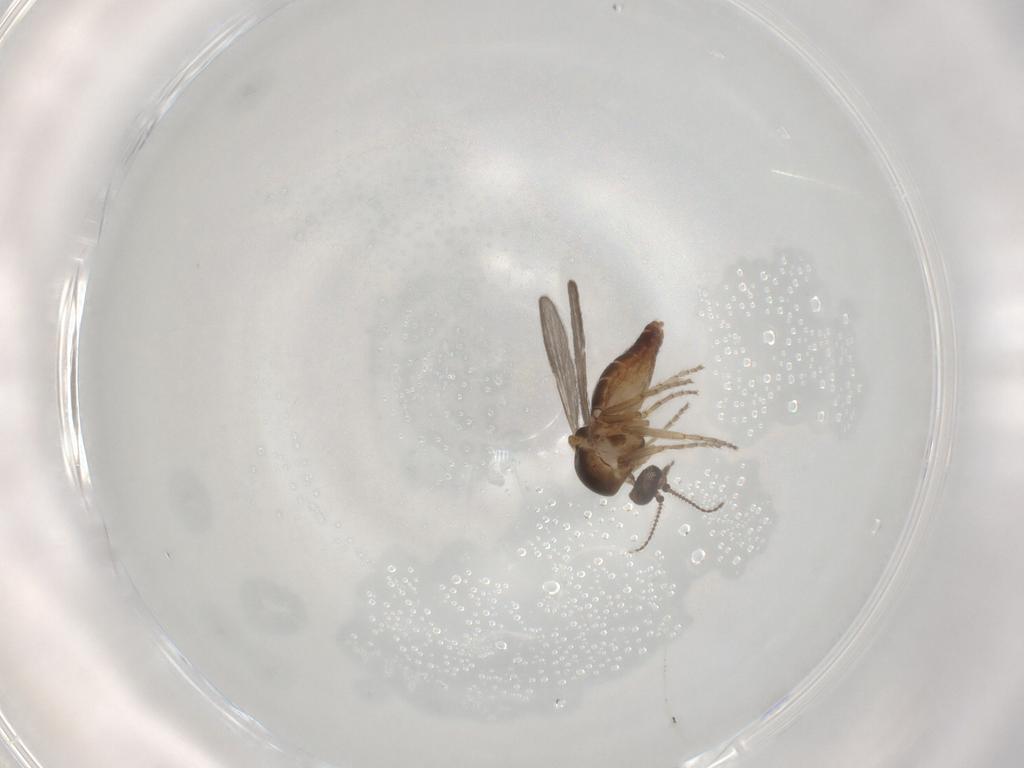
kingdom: Animalia
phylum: Arthropoda
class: Insecta
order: Diptera
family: Ceratopogonidae
